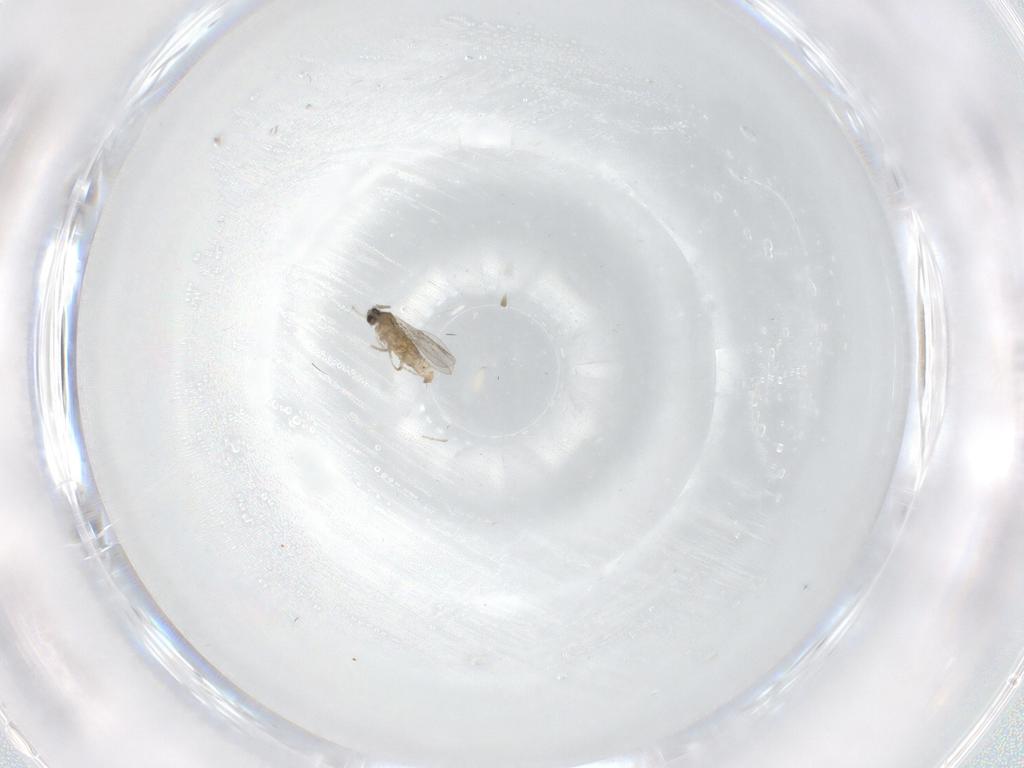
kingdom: Animalia
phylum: Arthropoda
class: Insecta
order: Diptera
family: Cecidomyiidae
